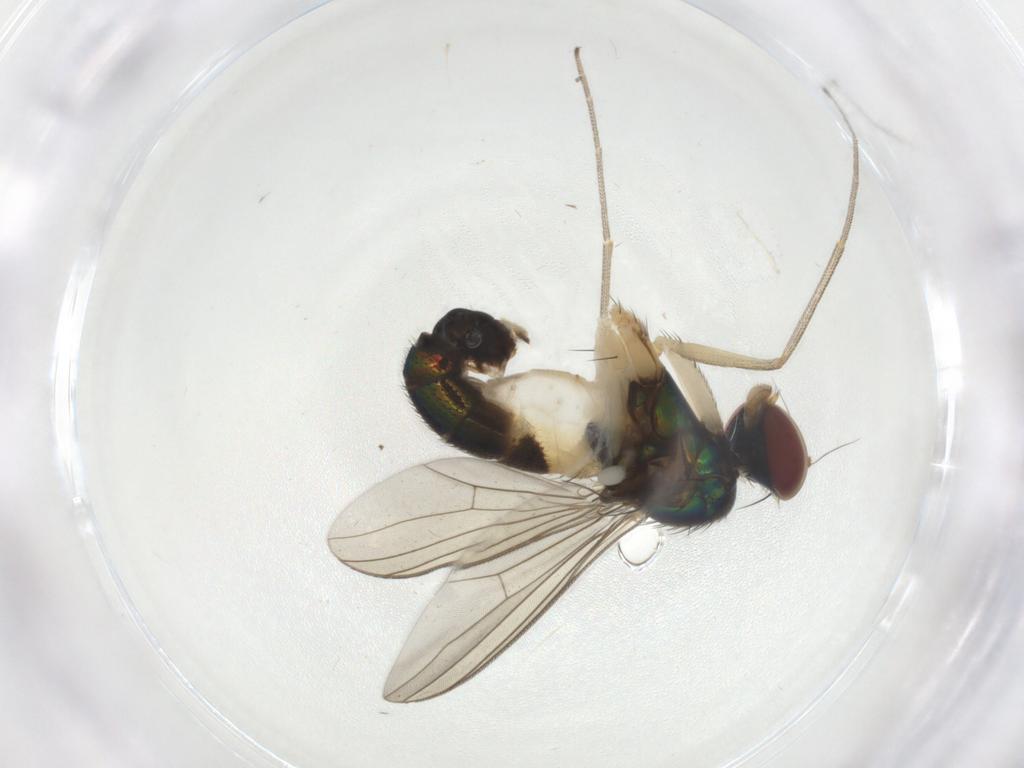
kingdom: Animalia
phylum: Arthropoda
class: Insecta
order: Diptera
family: Dolichopodidae
